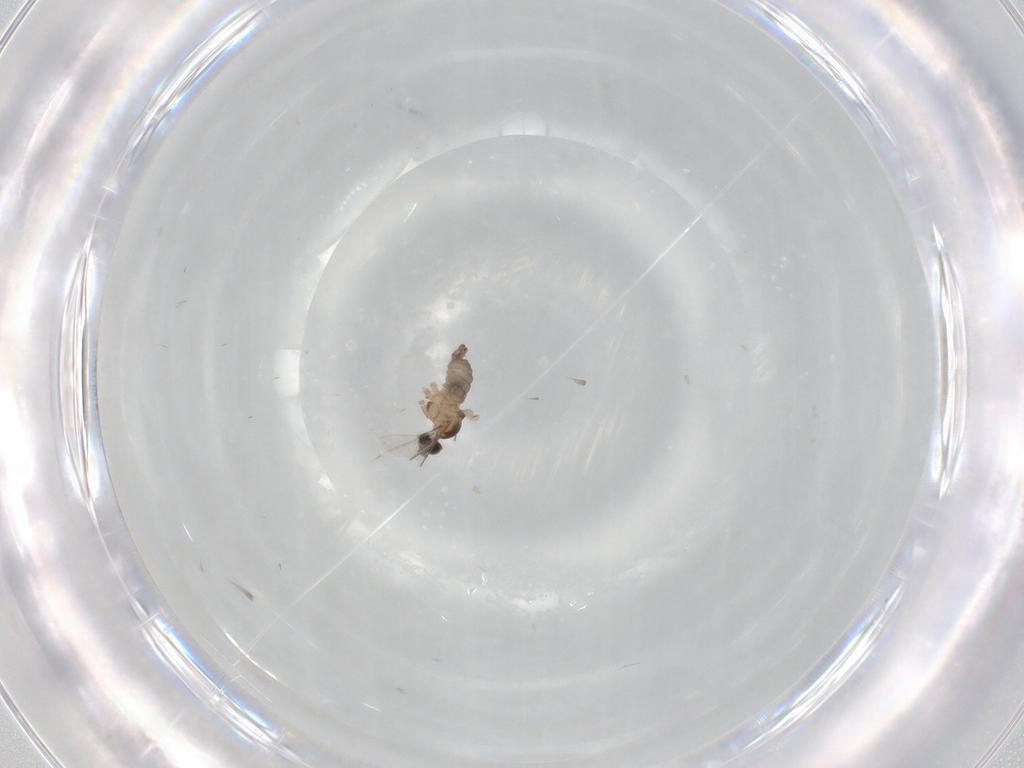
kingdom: Animalia
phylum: Arthropoda
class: Insecta
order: Diptera
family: Cecidomyiidae
